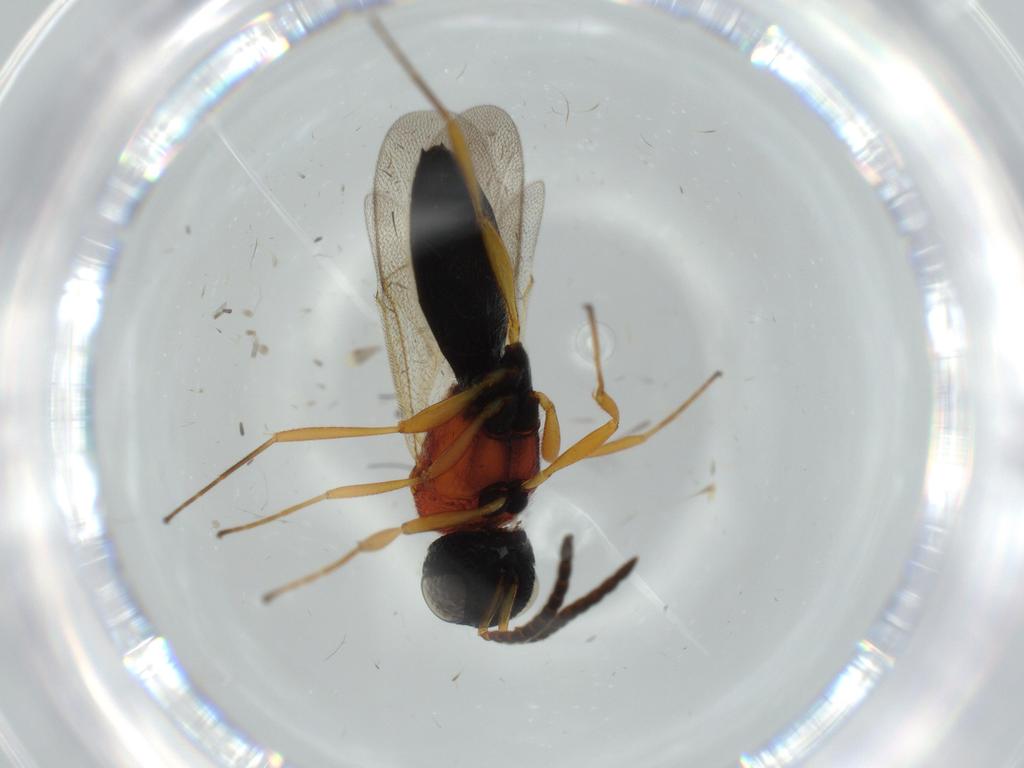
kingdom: Animalia
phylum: Arthropoda
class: Insecta
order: Hymenoptera
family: Scelionidae
